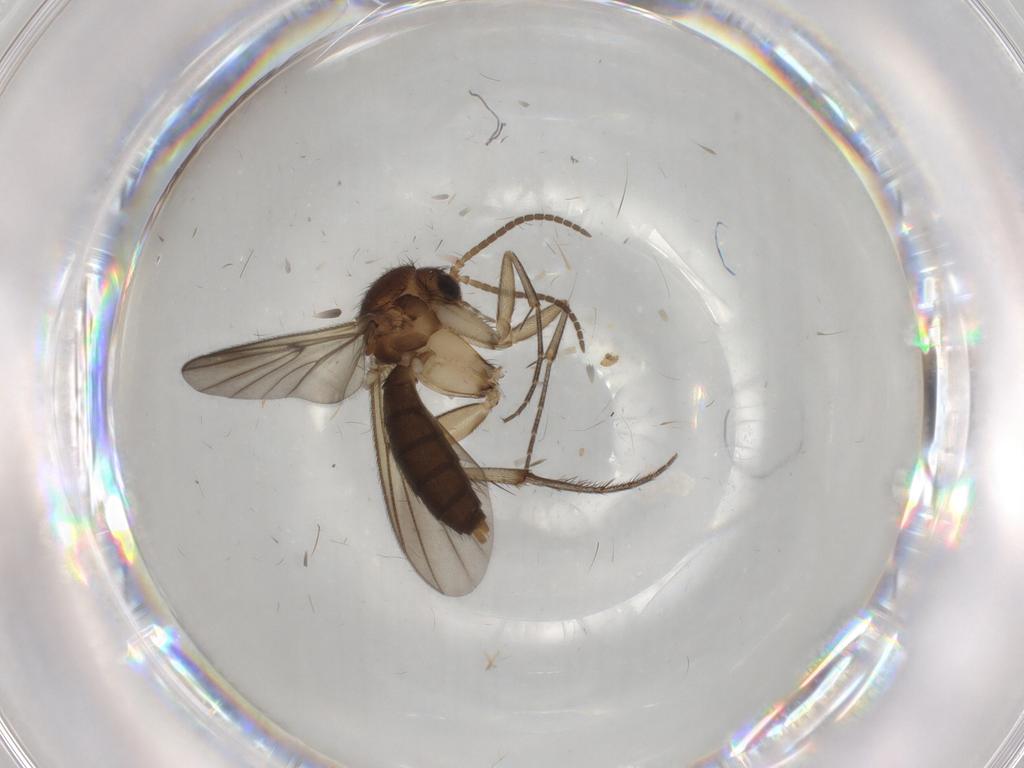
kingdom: Animalia
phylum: Arthropoda
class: Insecta
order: Diptera
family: Mycetophilidae
